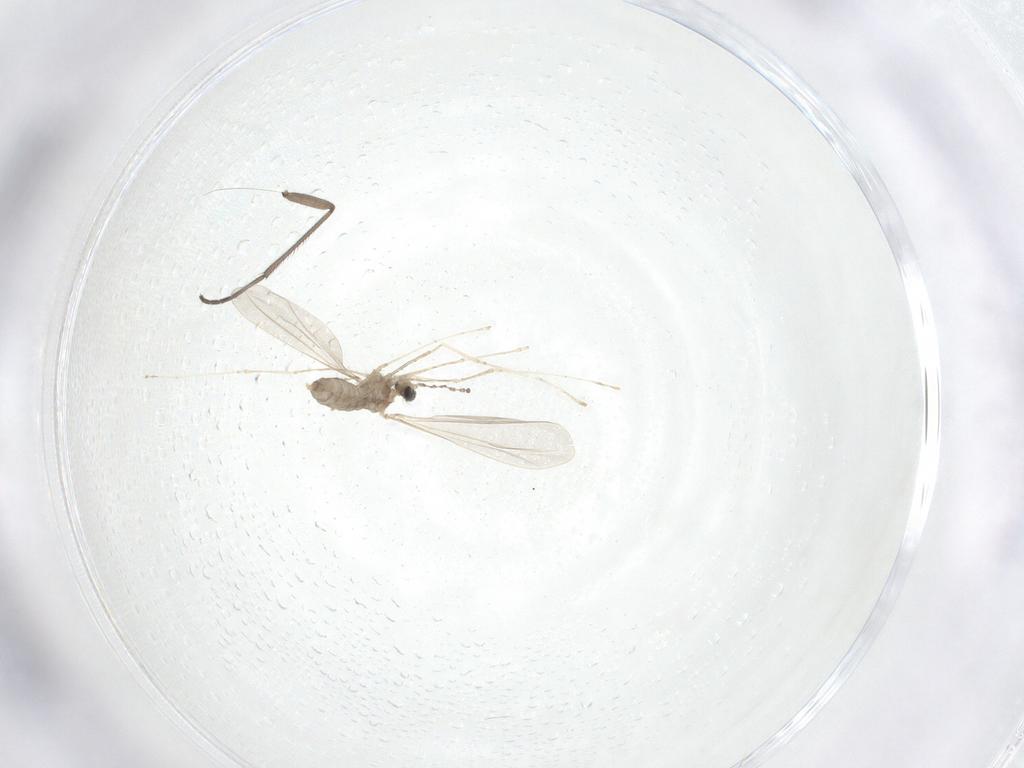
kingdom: Animalia
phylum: Arthropoda
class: Insecta
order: Diptera
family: Cecidomyiidae
